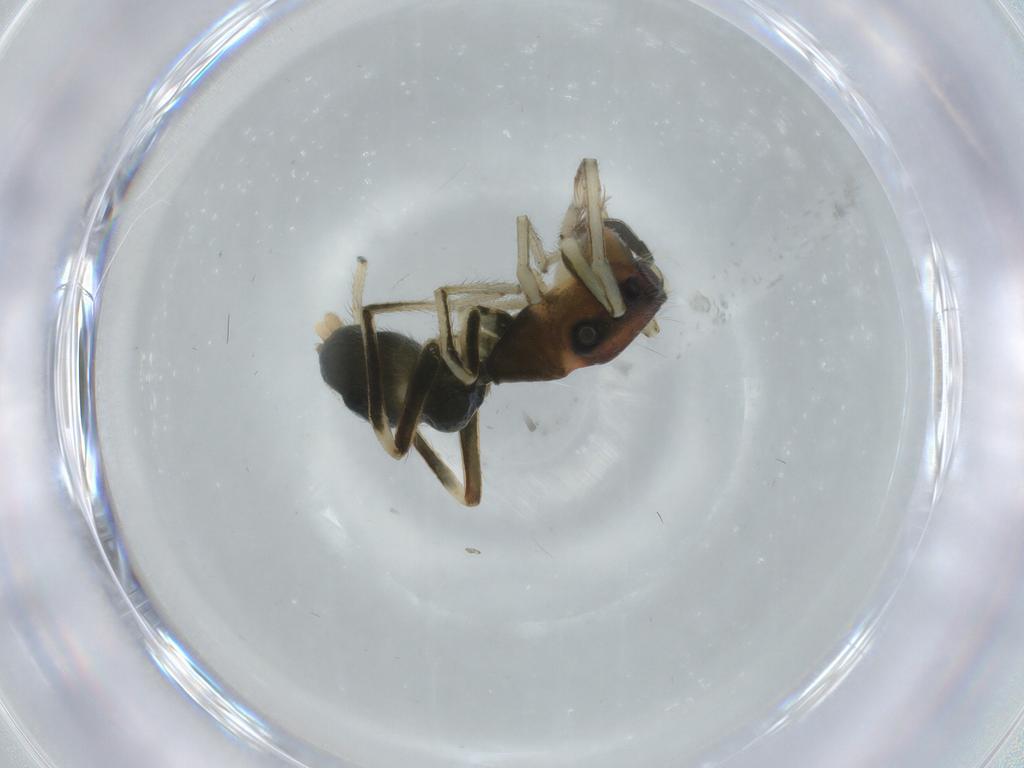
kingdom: Animalia
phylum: Arthropoda
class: Arachnida
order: Araneae
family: Salticidae
